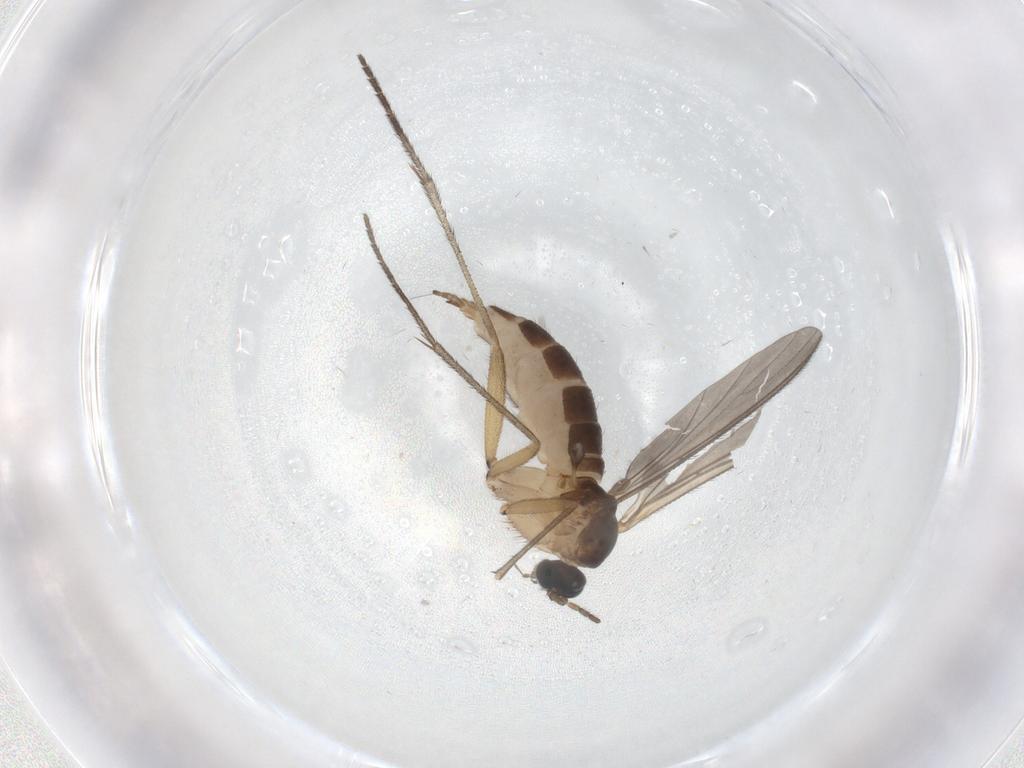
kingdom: Animalia
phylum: Arthropoda
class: Insecta
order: Diptera
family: Sciaridae
